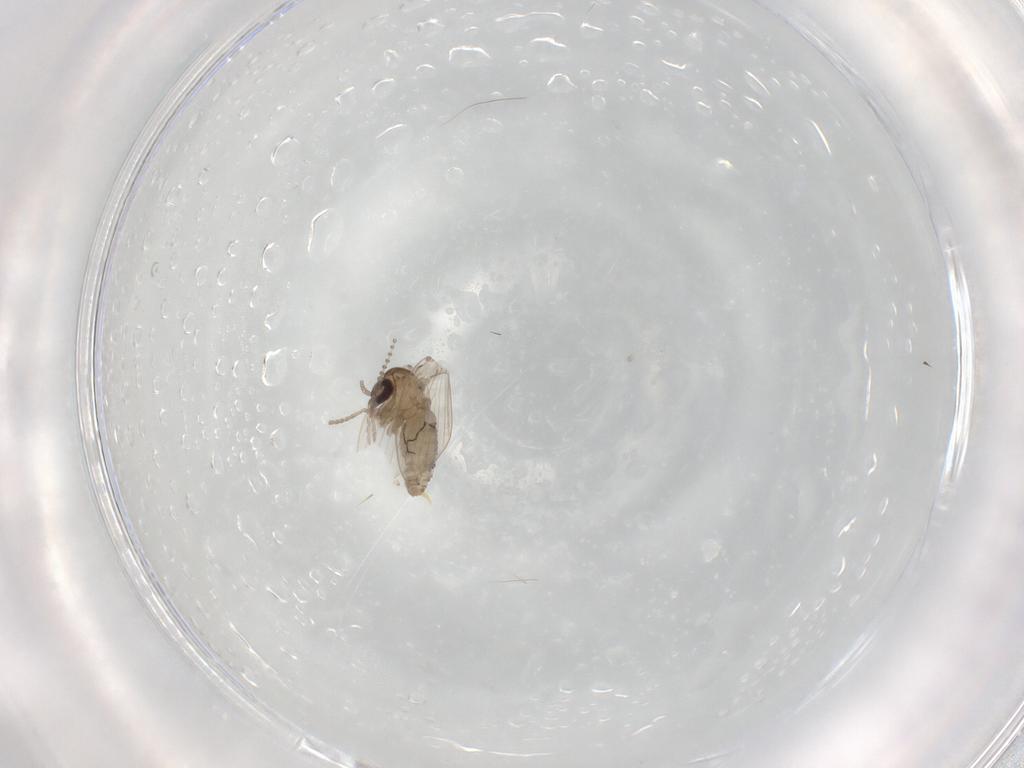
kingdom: Animalia
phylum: Arthropoda
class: Insecta
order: Diptera
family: Psychodidae
